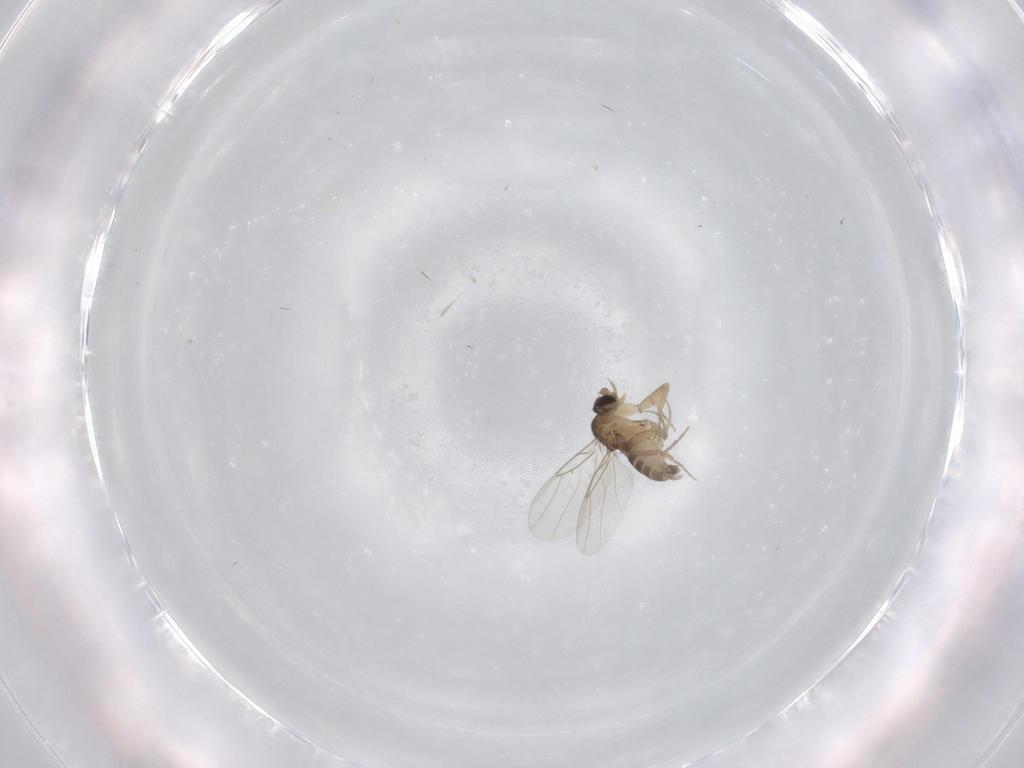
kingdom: Animalia
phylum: Arthropoda
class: Insecta
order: Diptera
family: Phoridae
